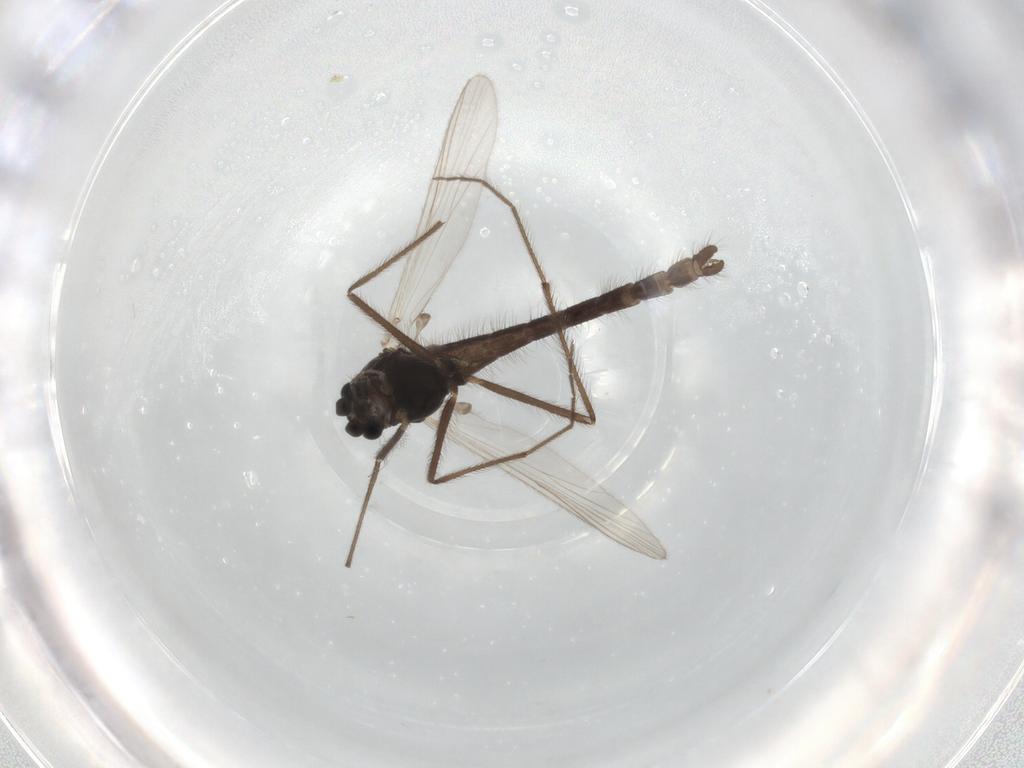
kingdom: Animalia
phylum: Arthropoda
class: Insecta
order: Diptera
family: Chironomidae
